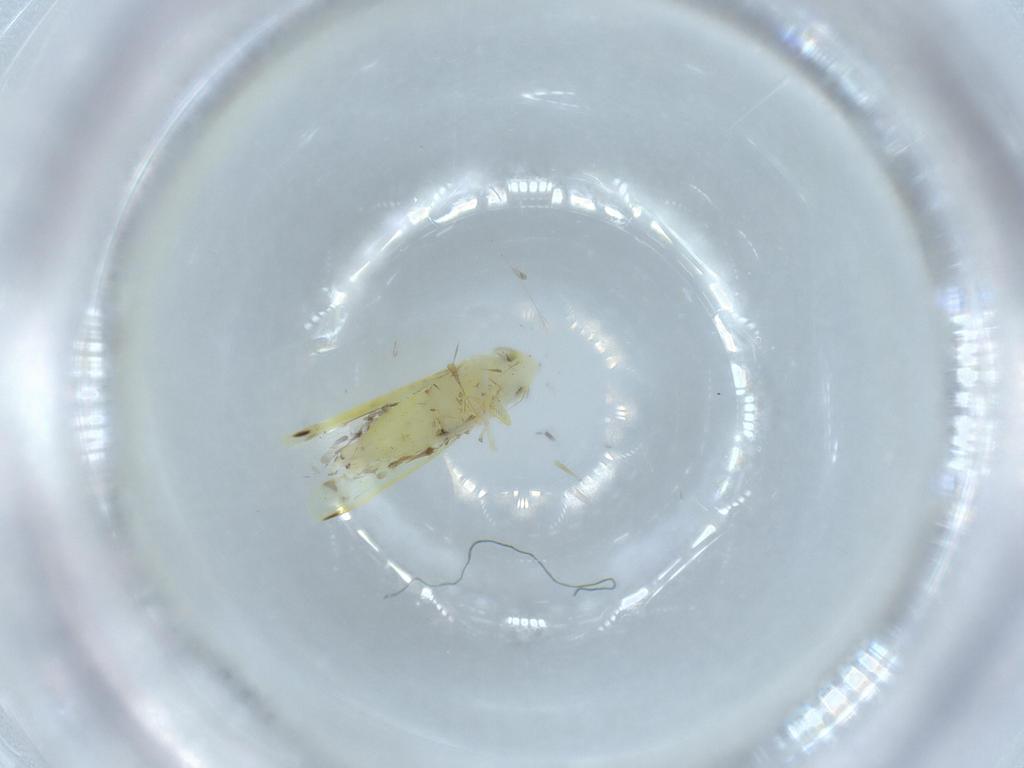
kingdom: Animalia
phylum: Arthropoda
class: Insecta
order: Hemiptera
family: Cicadellidae
